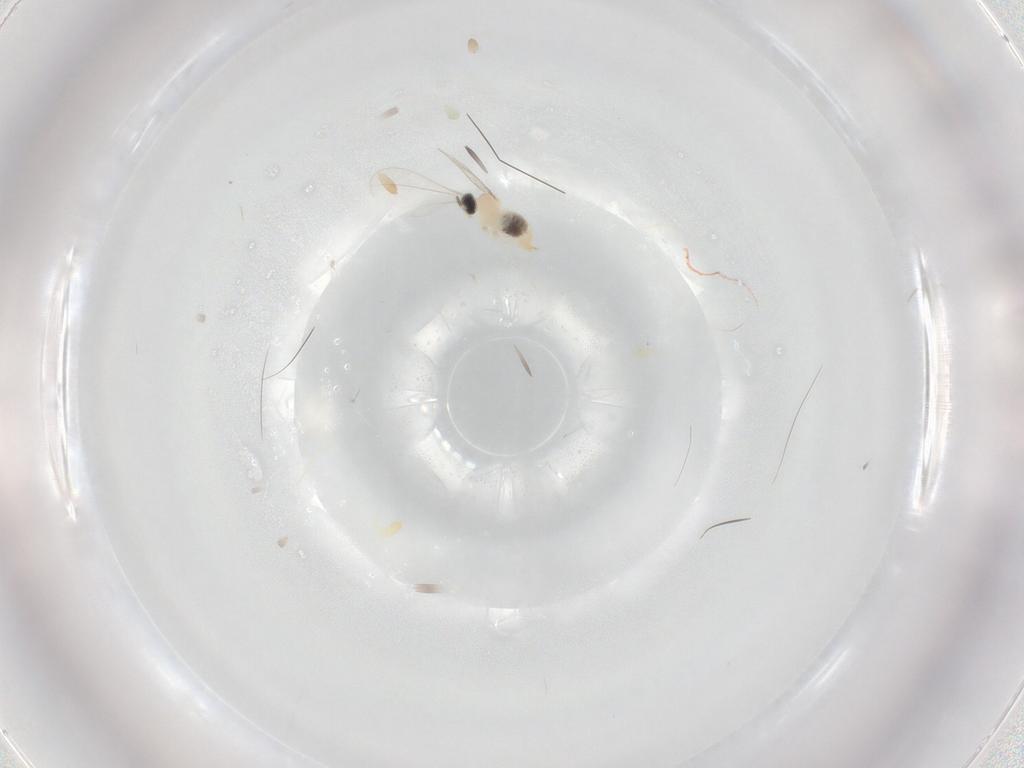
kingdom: Animalia
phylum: Arthropoda
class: Insecta
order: Diptera
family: Cecidomyiidae
